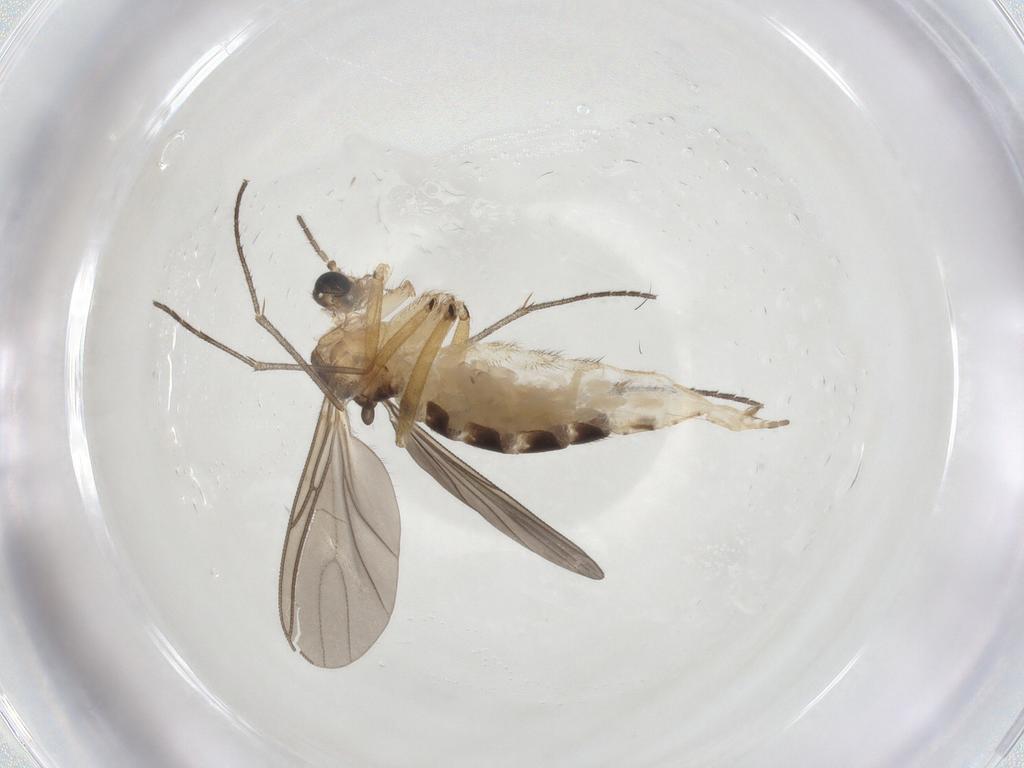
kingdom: Animalia
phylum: Arthropoda
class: Insecta
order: Diptera
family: Sciaridae
